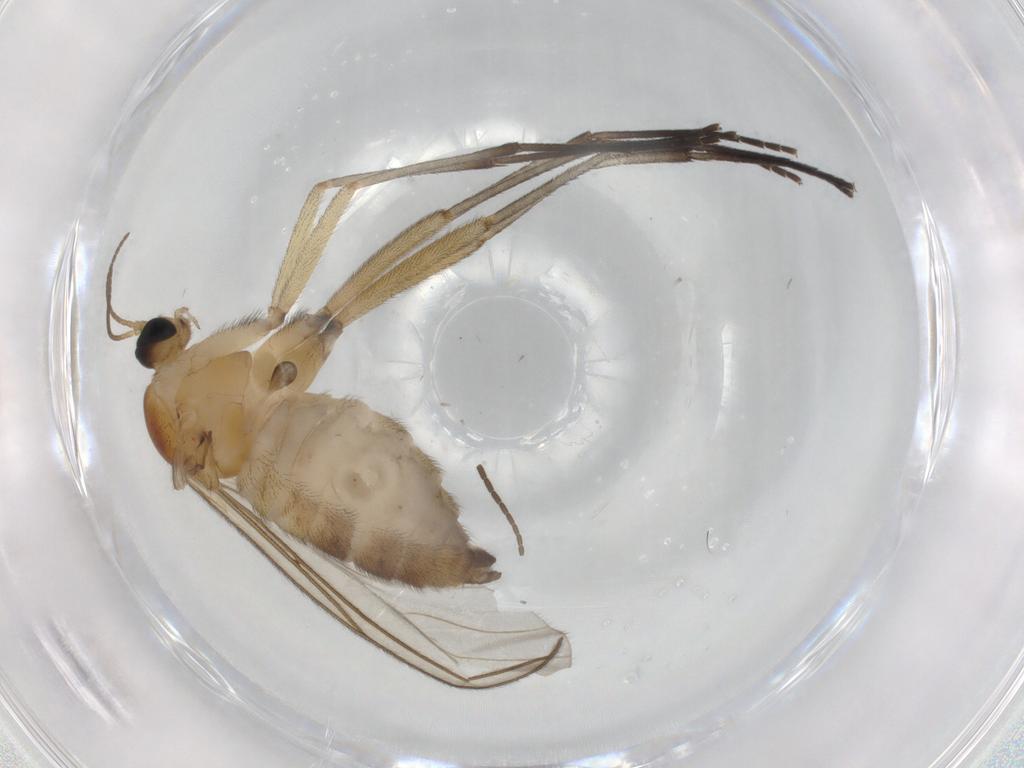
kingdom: Animalia
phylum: Arthropoda
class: Insecta
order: Diptera
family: Sciaridae
